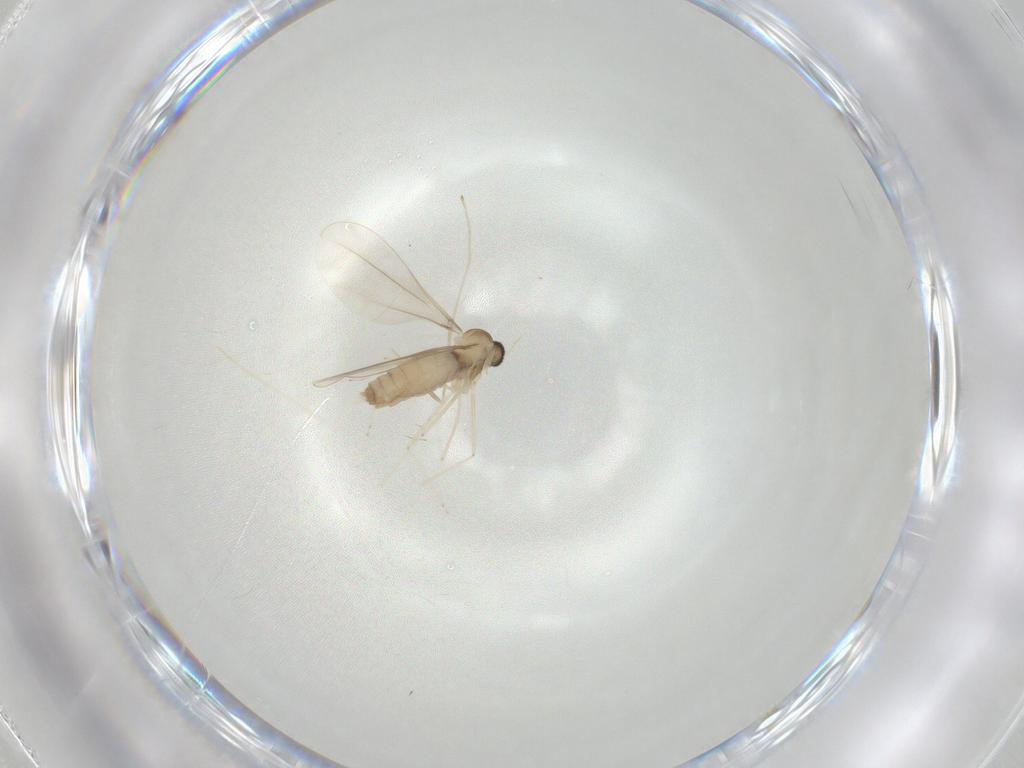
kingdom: Animalia
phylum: Arthropoda
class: Insecta
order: Diptera
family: Cecidomyiidae
